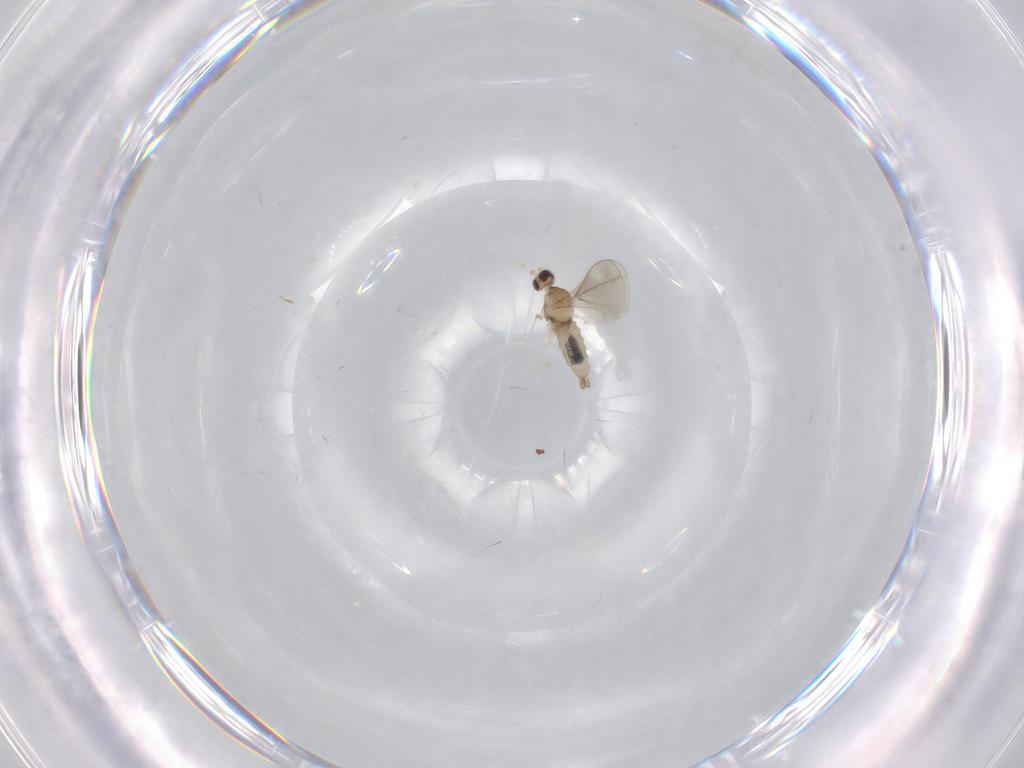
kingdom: Animalia
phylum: Arthropoda
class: Insecta
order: Diptera
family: Cecidomyiidae
